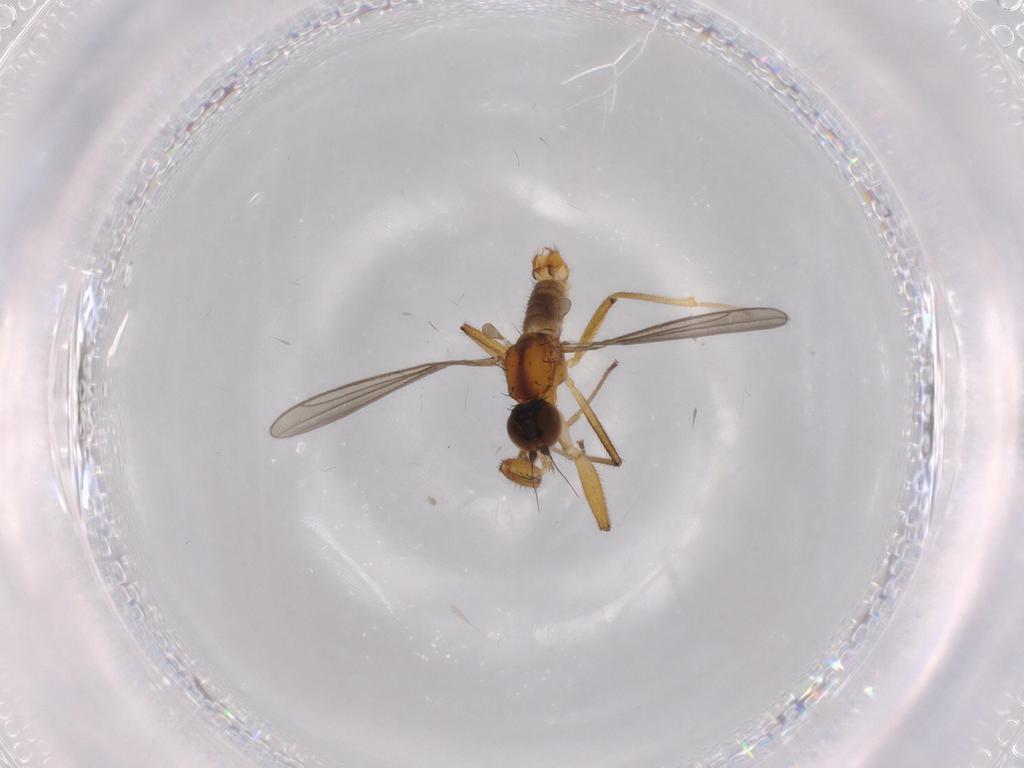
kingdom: Animalia
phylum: Arthropoda
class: Insecta
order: Diptera
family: Empididae
